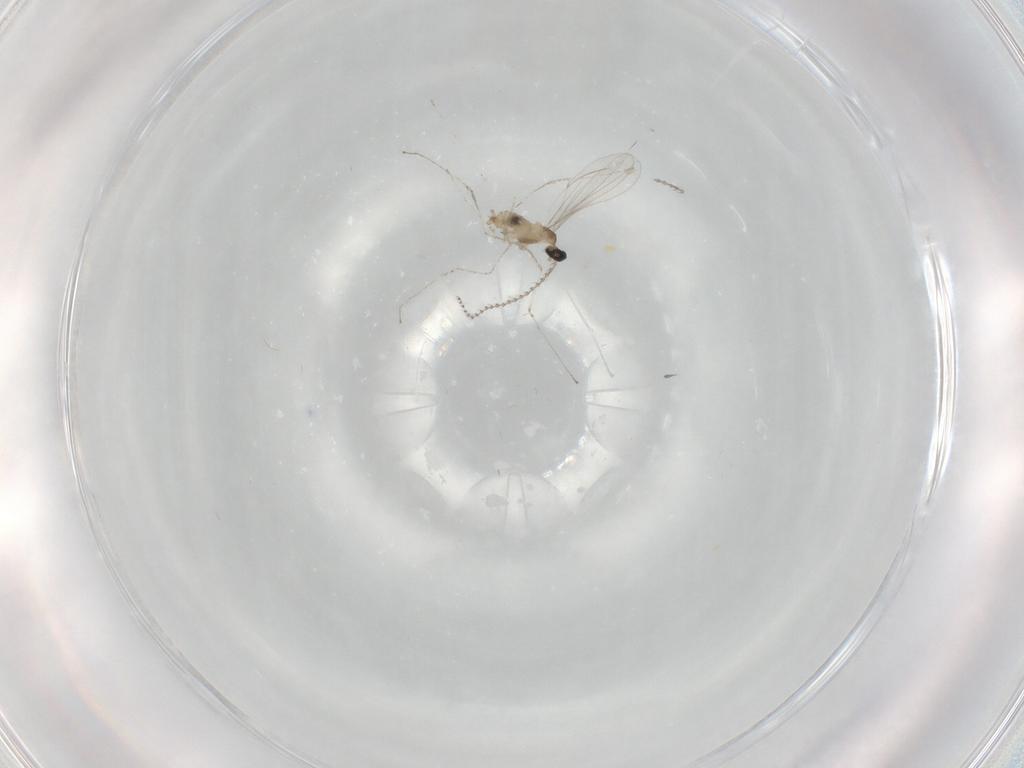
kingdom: Animalia
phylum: Arthropoda
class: Insecta
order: Diptera
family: Cecidomyiidae
